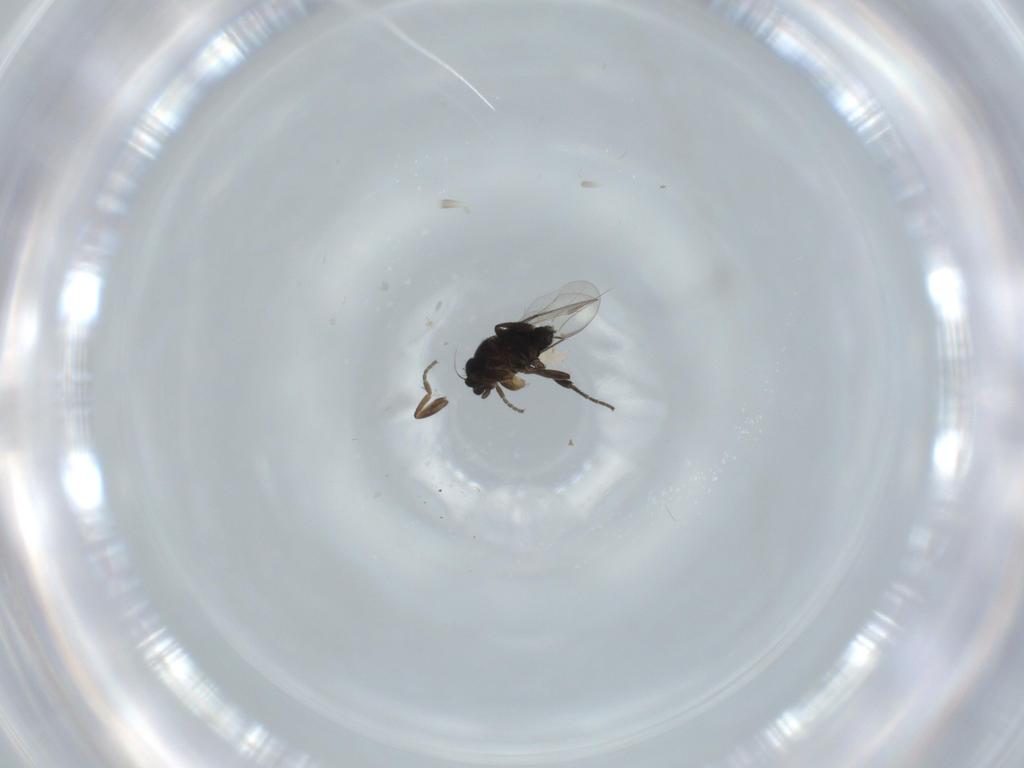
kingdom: Animalia
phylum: Arthropoda
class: Insecta
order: Diptera
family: Phoridae
